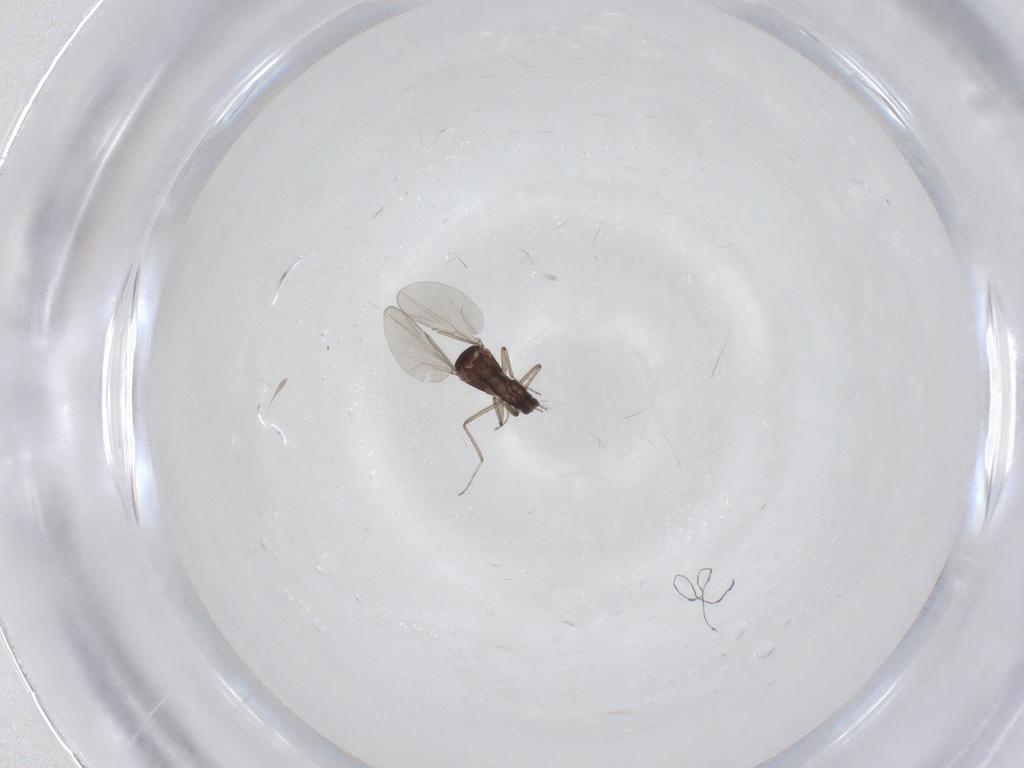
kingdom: Animalia
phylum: Arthropoda
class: Insecta
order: Diptera
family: Ceratopogonidae
